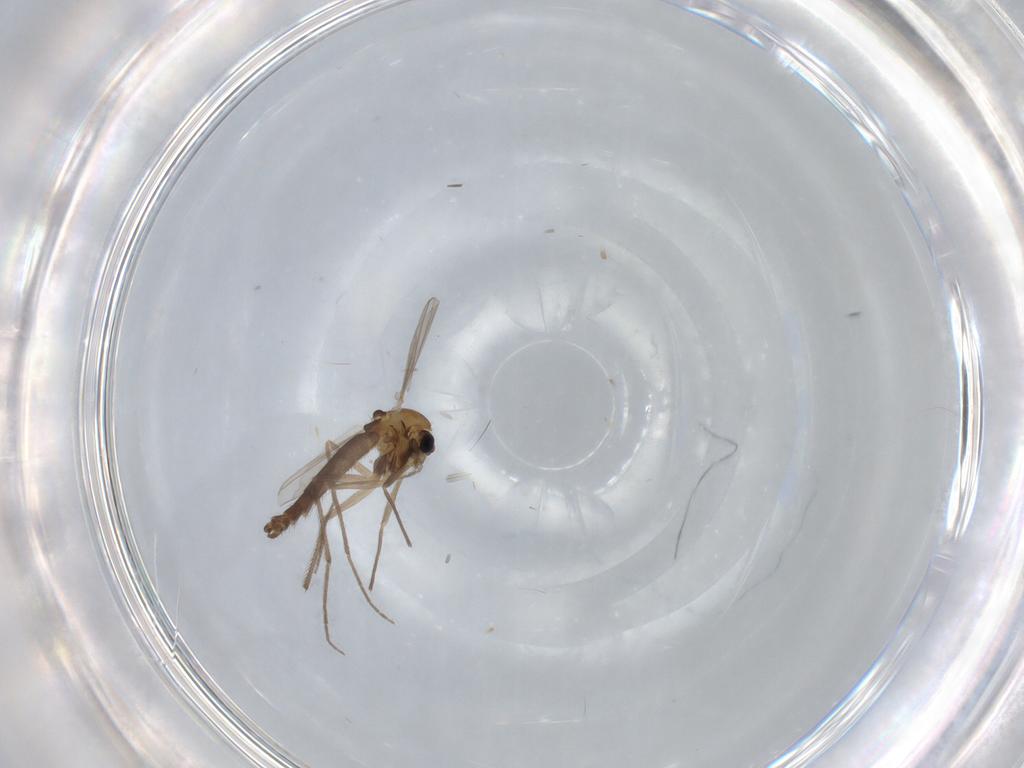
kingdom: Animalia
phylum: Arthropoda
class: Insecta
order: Diptera
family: Chironomidae
